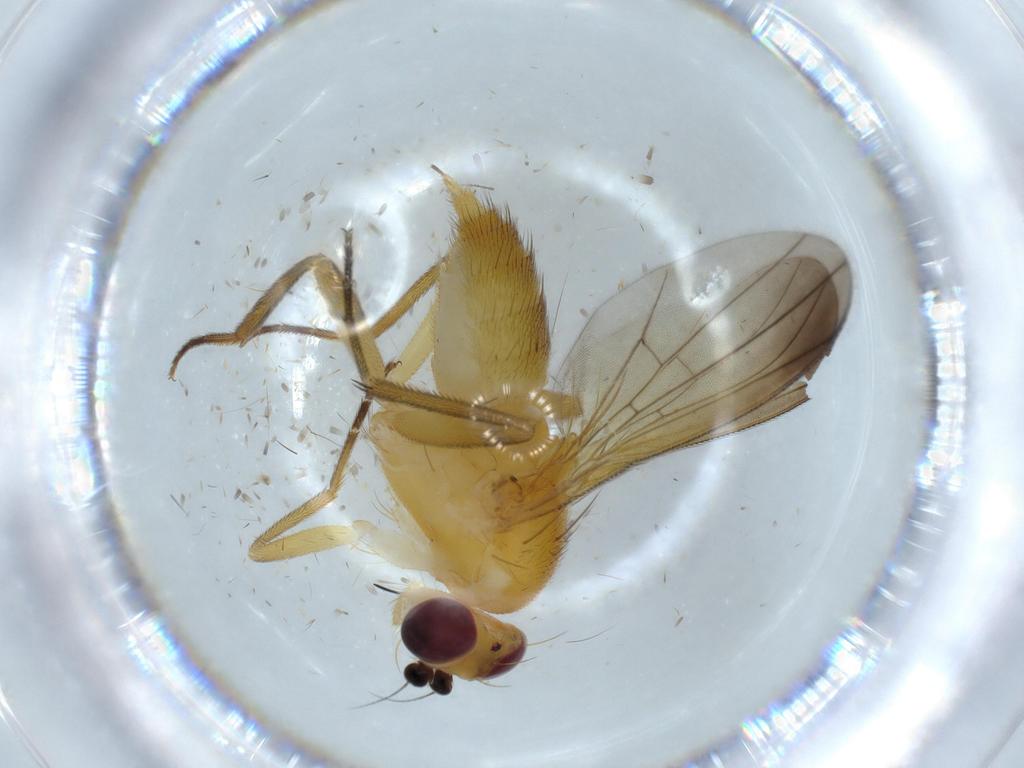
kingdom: Animalia
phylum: Arthropoda
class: Insecta
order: Diptera
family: Clusiidae
